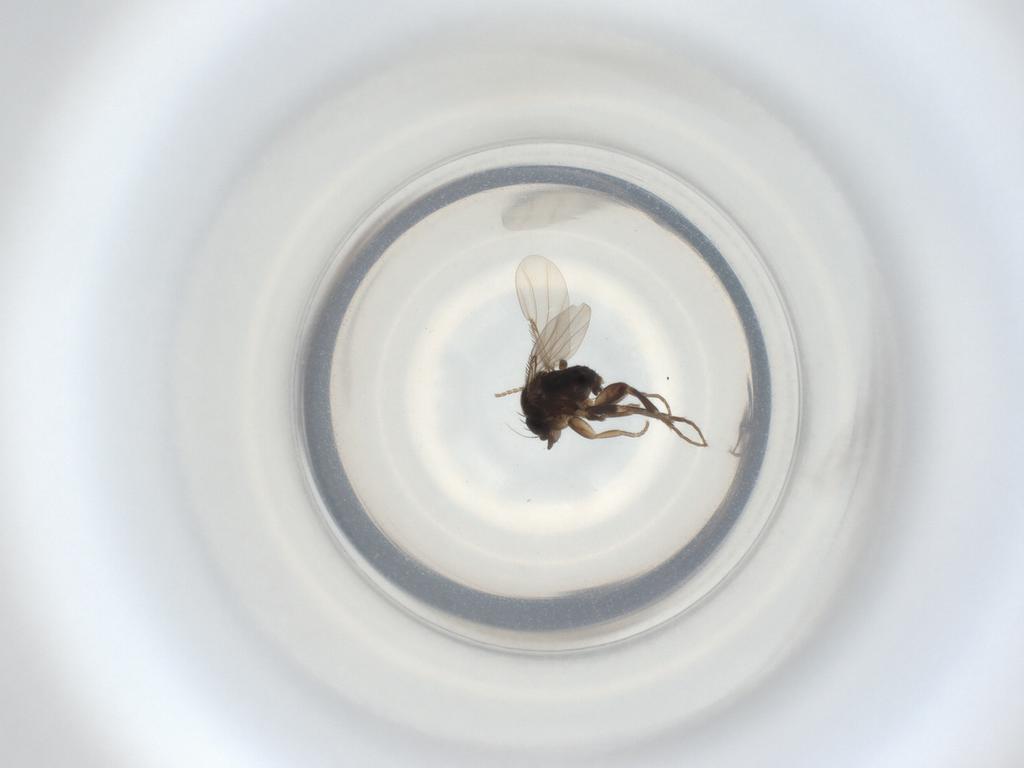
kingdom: Animalia
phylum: Arthropoda
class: Insecta
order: Diptera
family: Phoridae
